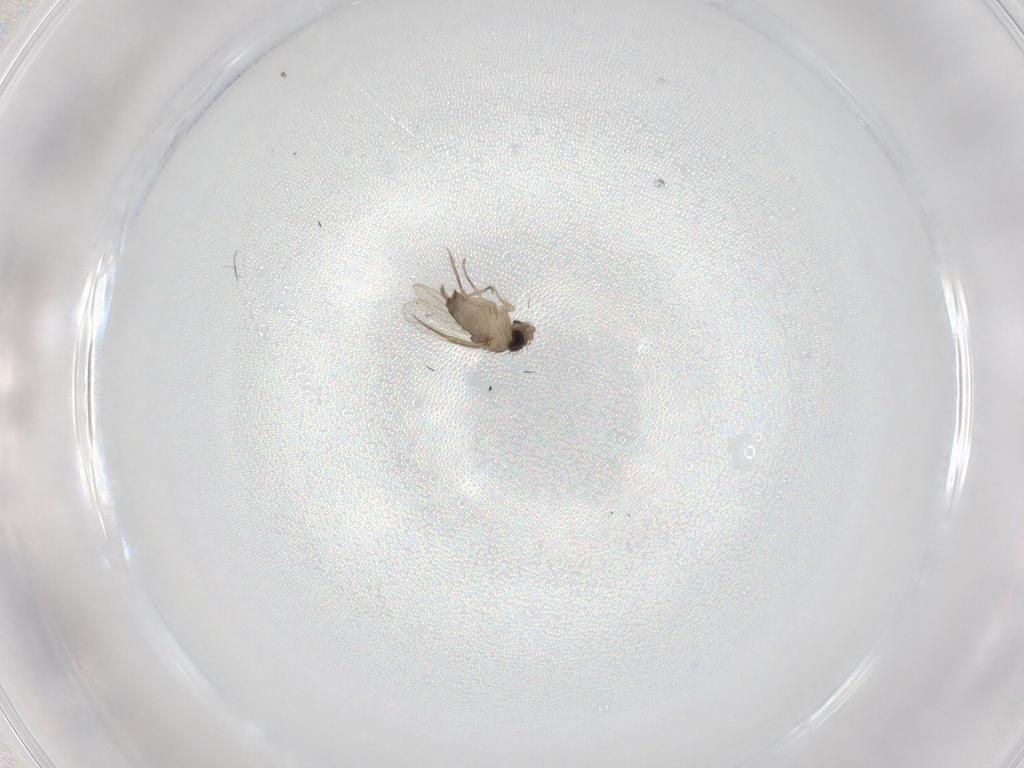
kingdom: Animalia
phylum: Arthropoda
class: Insecta
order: Diptera
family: Phoridae
